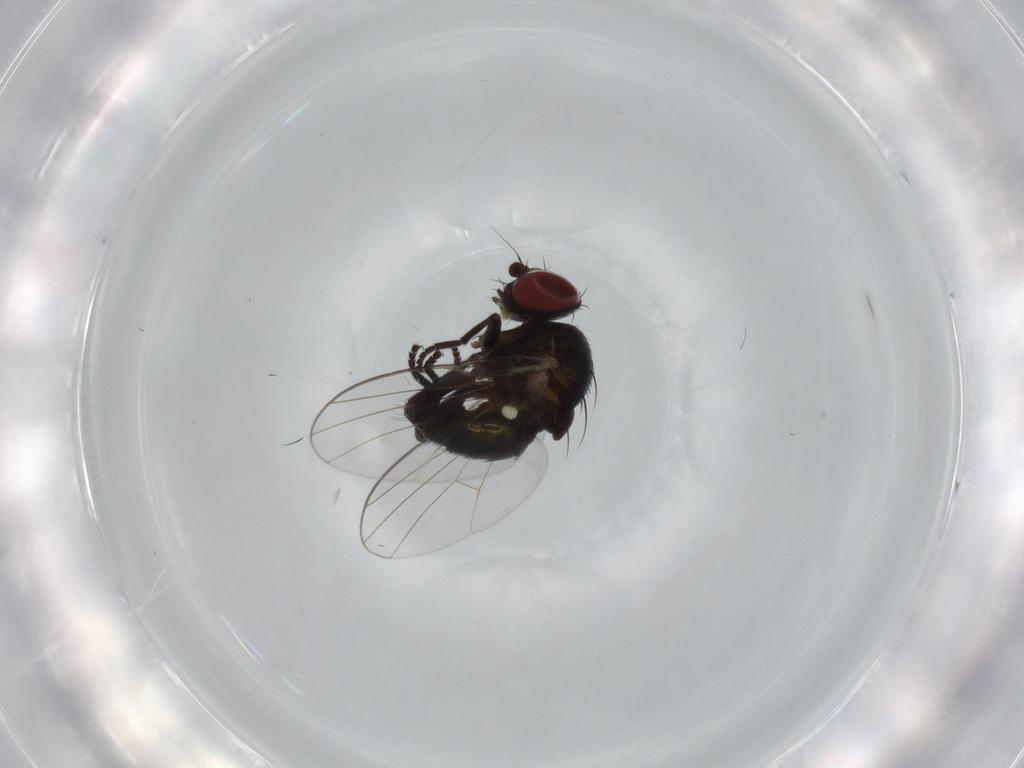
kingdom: Animalia
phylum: Arthropoda
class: Insecta
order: Diptera
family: Agromyzidae
